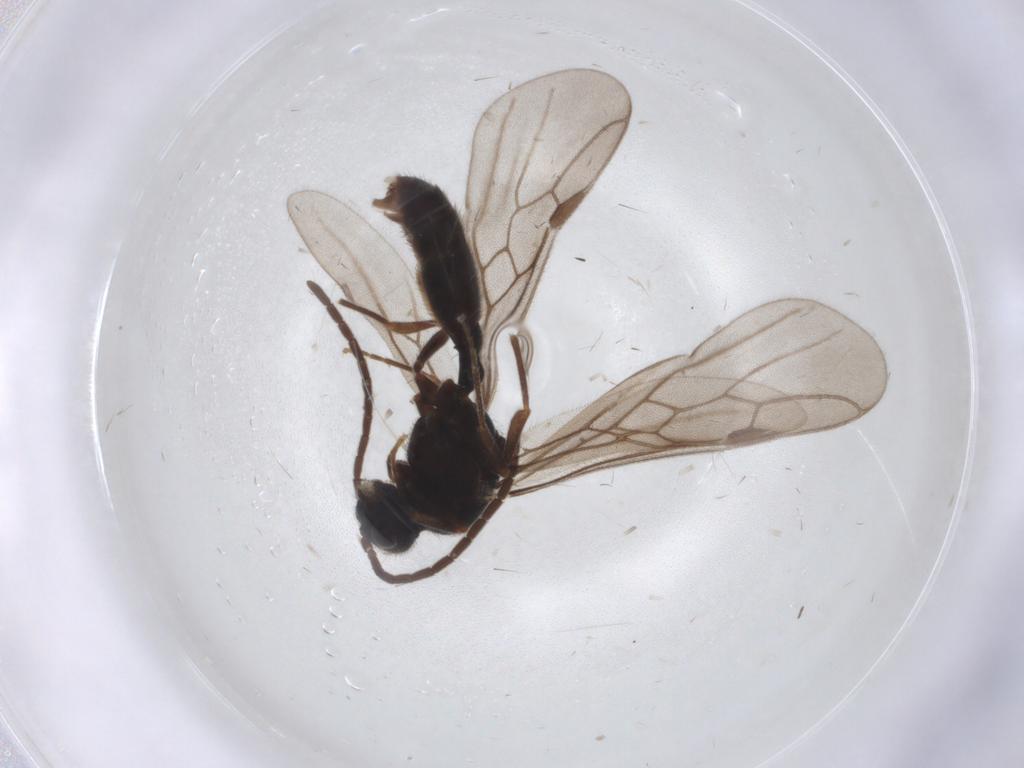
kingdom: Animalia
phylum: Arthropoda
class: Insecta
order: Hymenoptera
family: Formicidae
